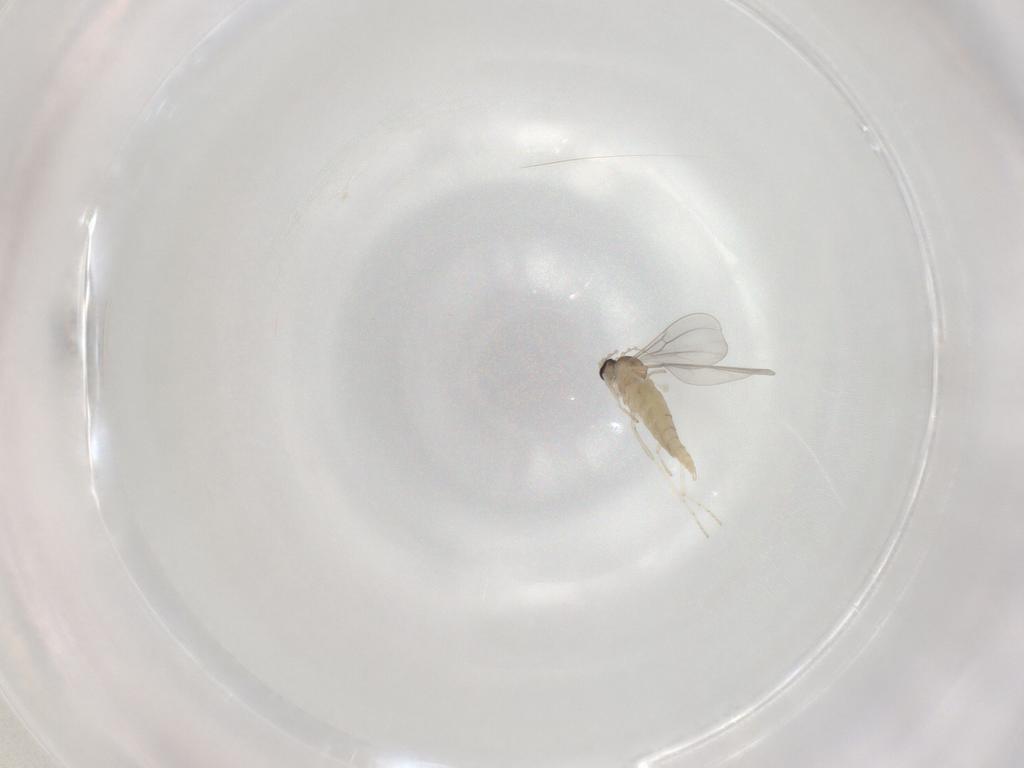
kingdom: Animalia
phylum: Arthropoda
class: Insecta
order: Diptera
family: Cecidomyiidae
